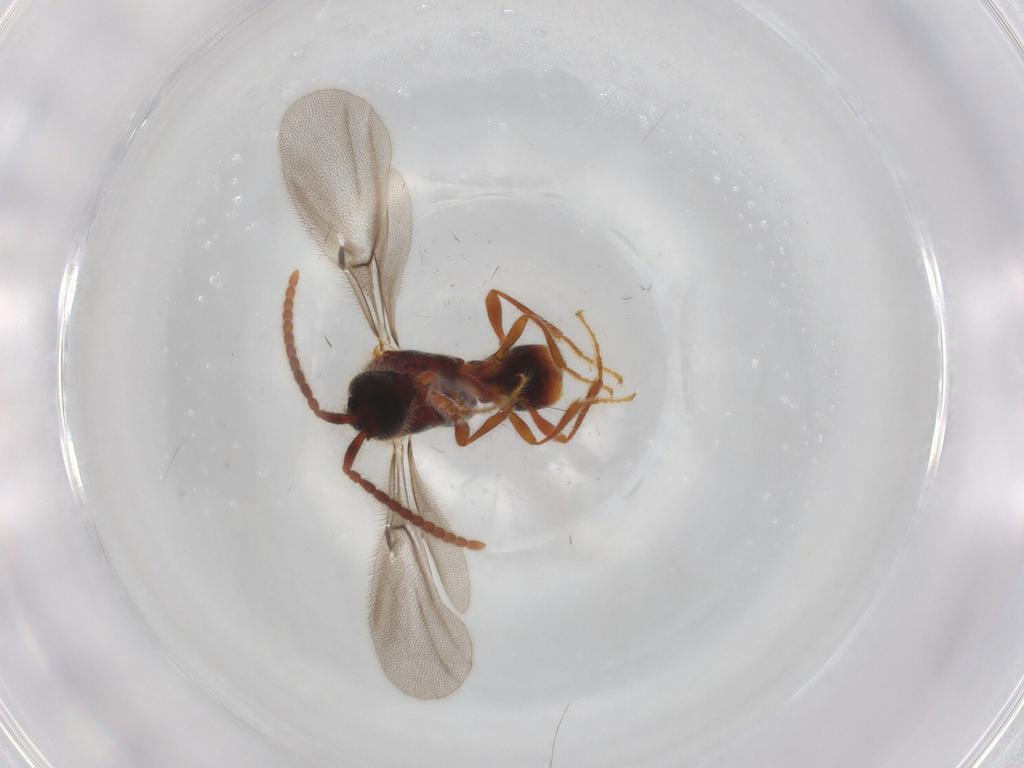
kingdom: Animalia
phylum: Arthropoda
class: Insecta
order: Hymenoptera
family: Diapriidae
